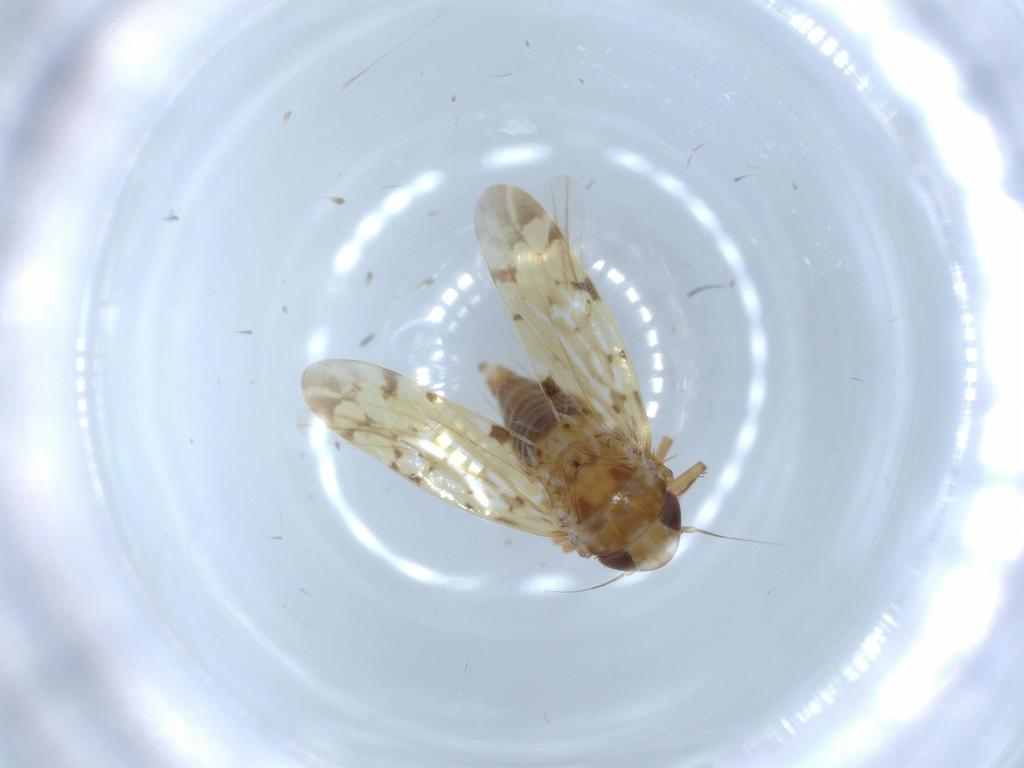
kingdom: Animalia
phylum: Arthropoda
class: Insecta
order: Hemiptera
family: Cicadellidae
